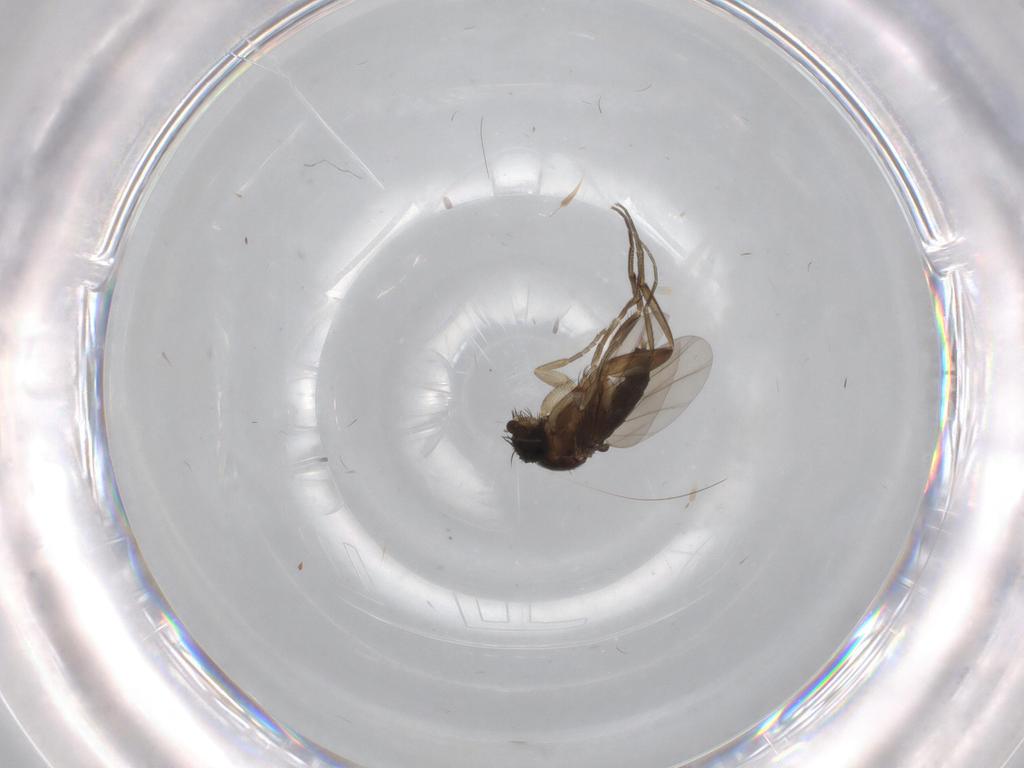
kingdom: Animalia
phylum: Arthropoda
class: Insecta
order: Diptera
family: Phoridae
